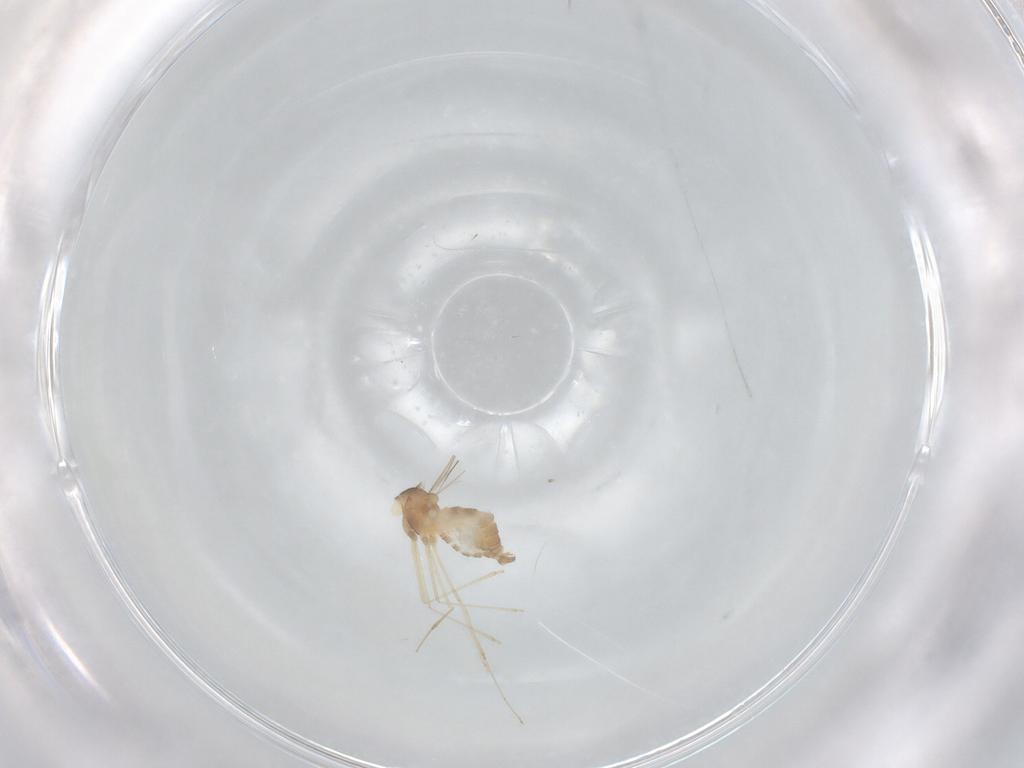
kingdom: Animalia
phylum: Arthropoda
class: Insecta
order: Diptera
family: Cecidomyiidae
